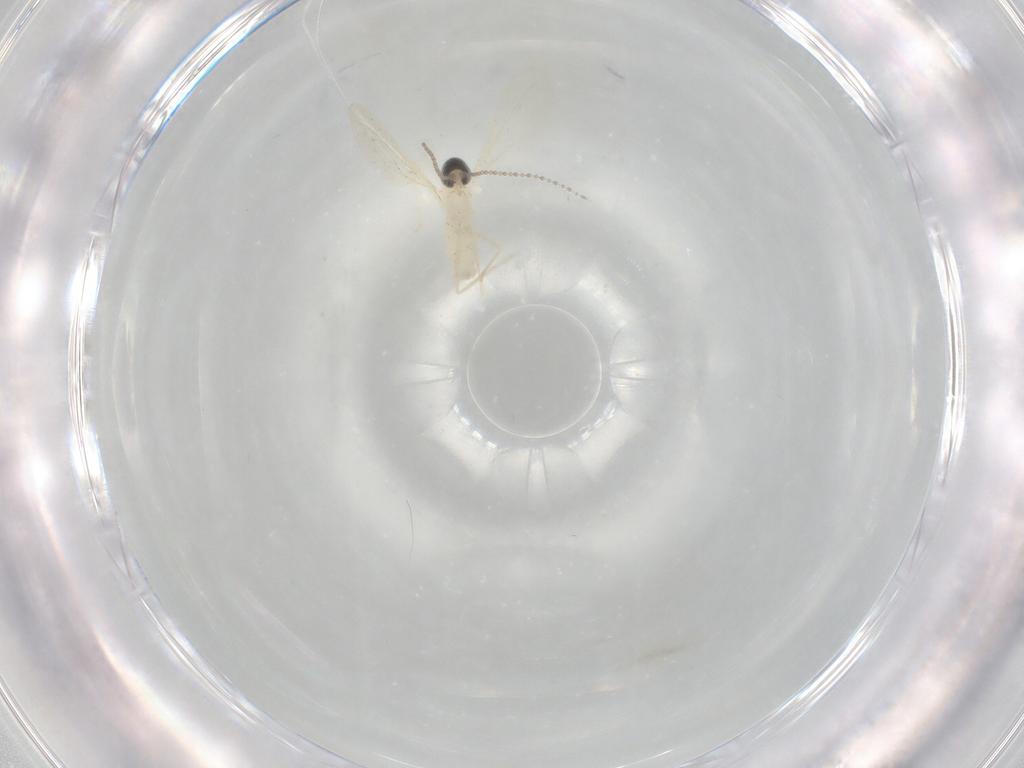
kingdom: Animalia
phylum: Arthropoda
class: Insecta
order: Diptera
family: Cecidomyiidae
